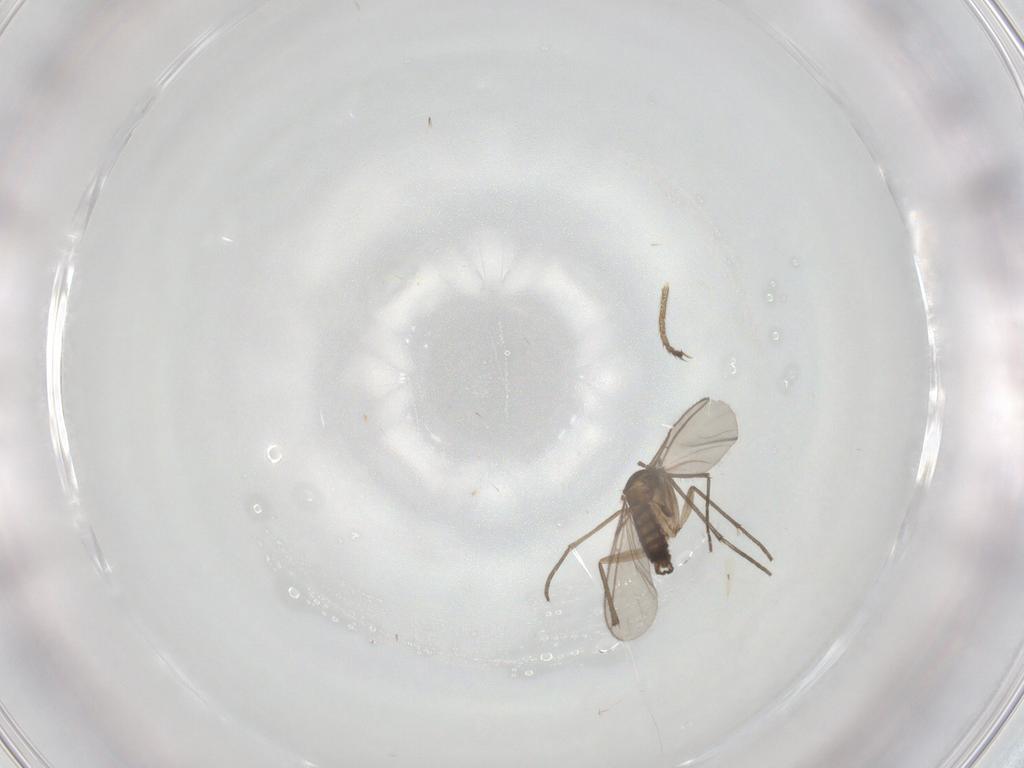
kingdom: Animalia
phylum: Arthropoda
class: Insecta
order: Diptera
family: Sciaridae
